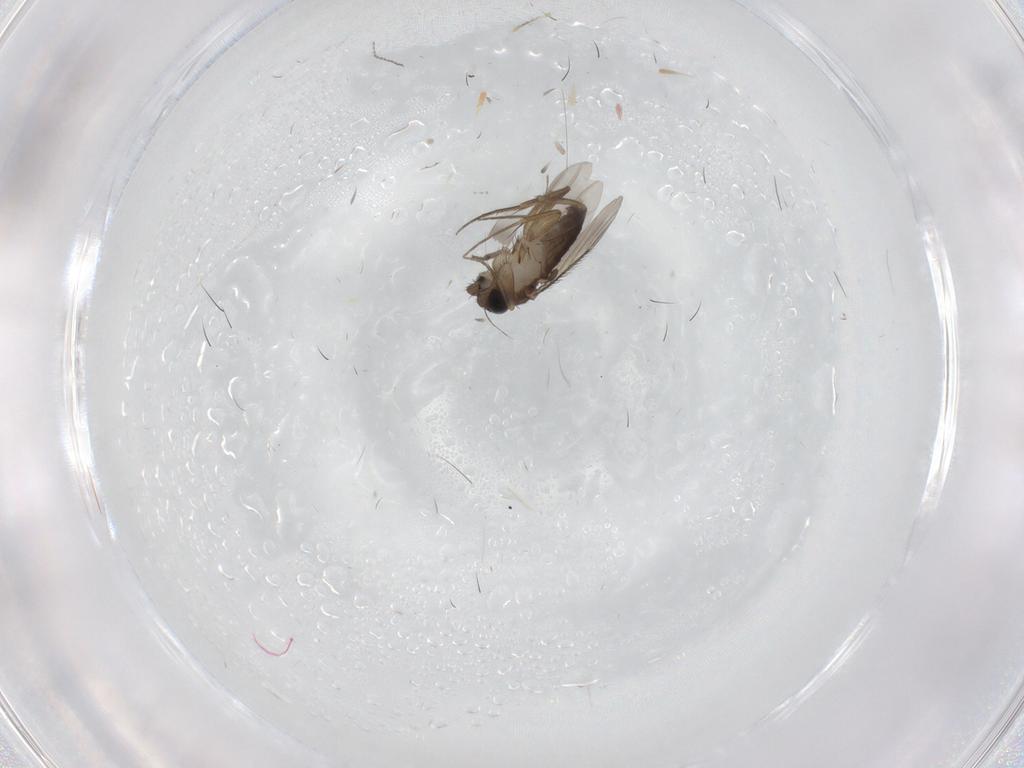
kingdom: Animalia
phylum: Arthropoda
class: Insecta
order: Diptera
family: Phoridae
